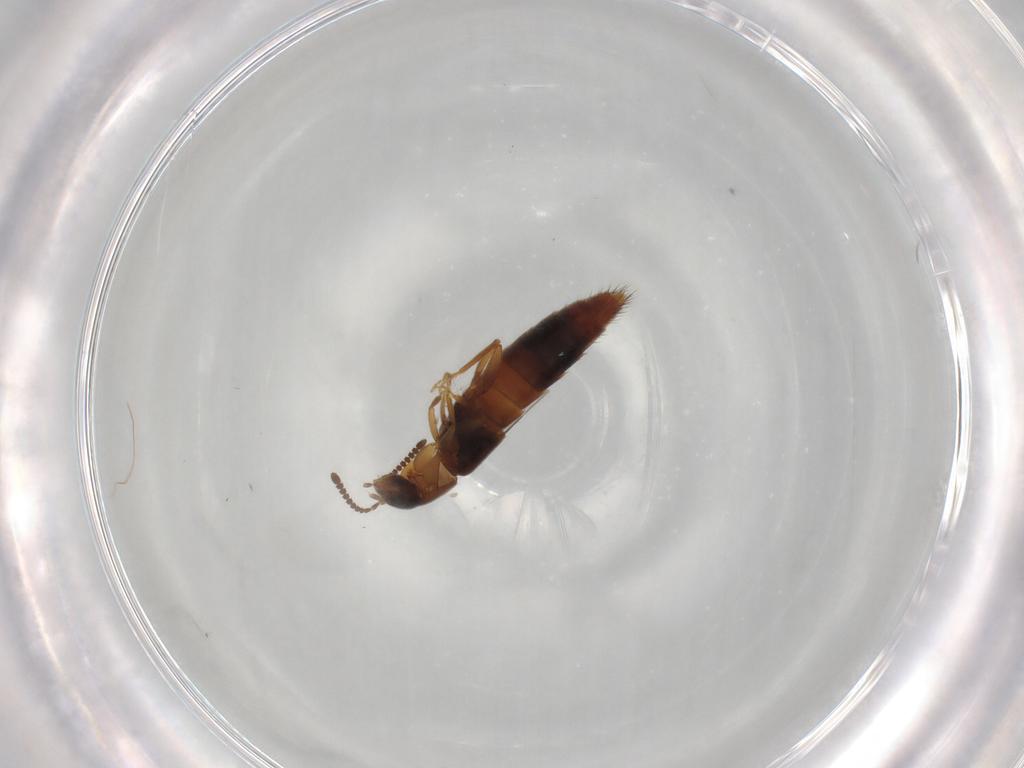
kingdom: Animalia
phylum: Arthropoda
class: Insecta
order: Coleoptera
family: Staphylinidae
